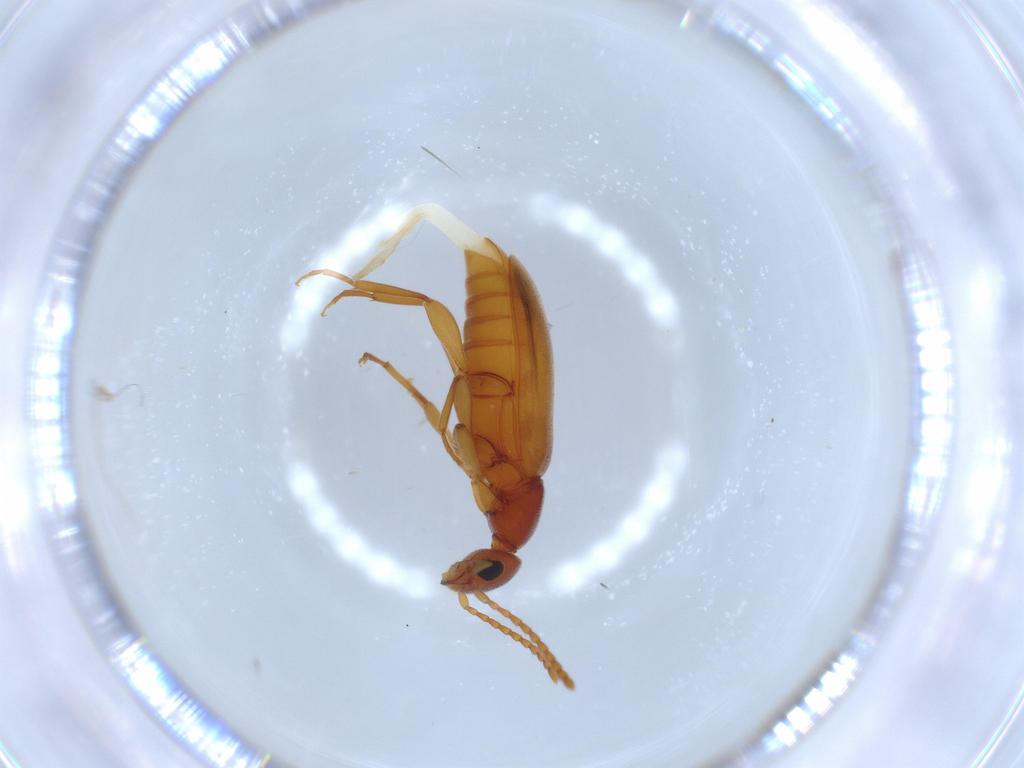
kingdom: Animalia
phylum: Arthropoda
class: Insecta
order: Coleoptera
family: Anthicidae
